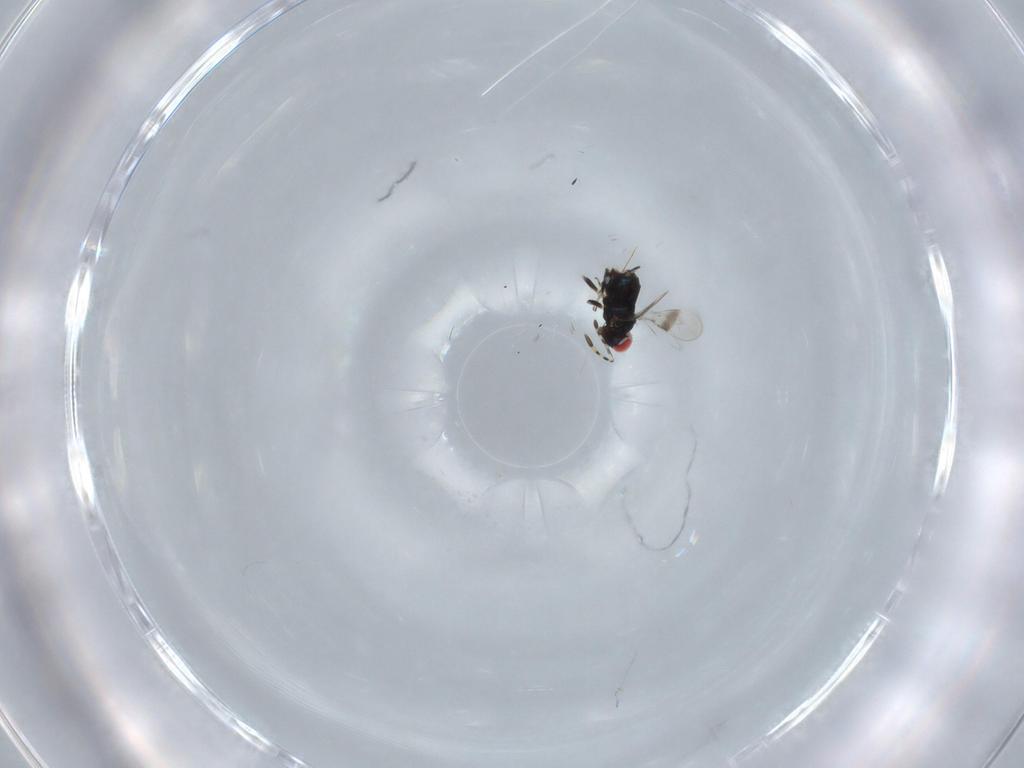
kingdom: Animalia
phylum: Arthropoda
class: Insecta
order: Hymenoptera
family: Azotidae
